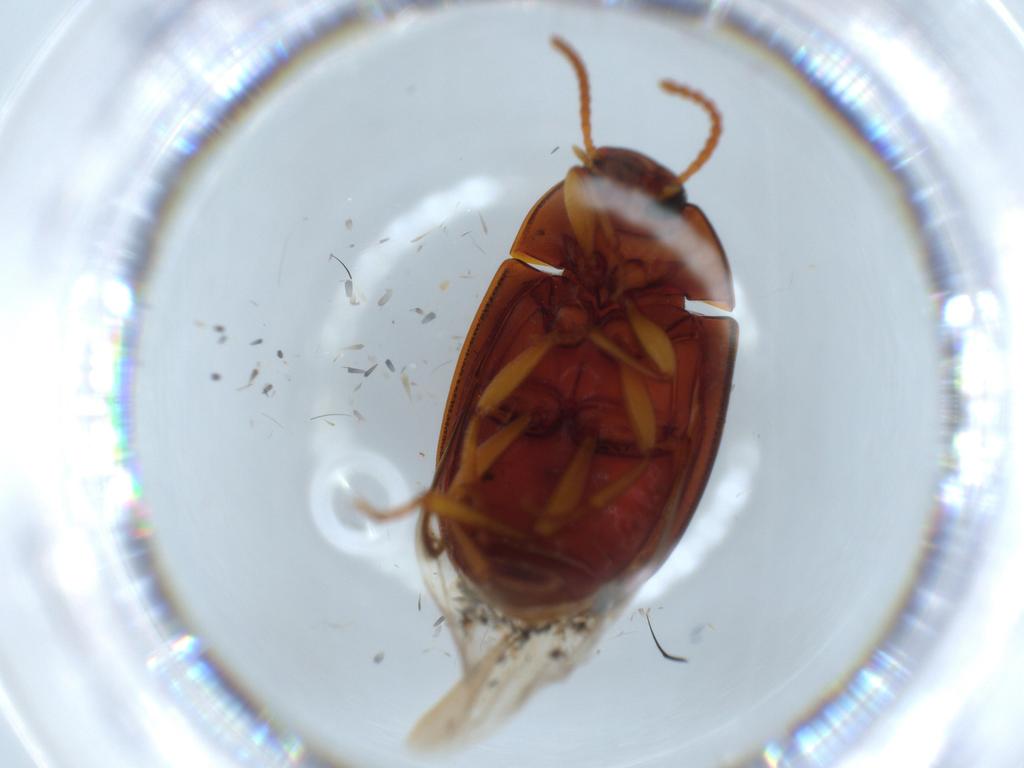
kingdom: Animalia
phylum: Arthropoda
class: Insecta
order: Coleoptera
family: Chrysomelidae
